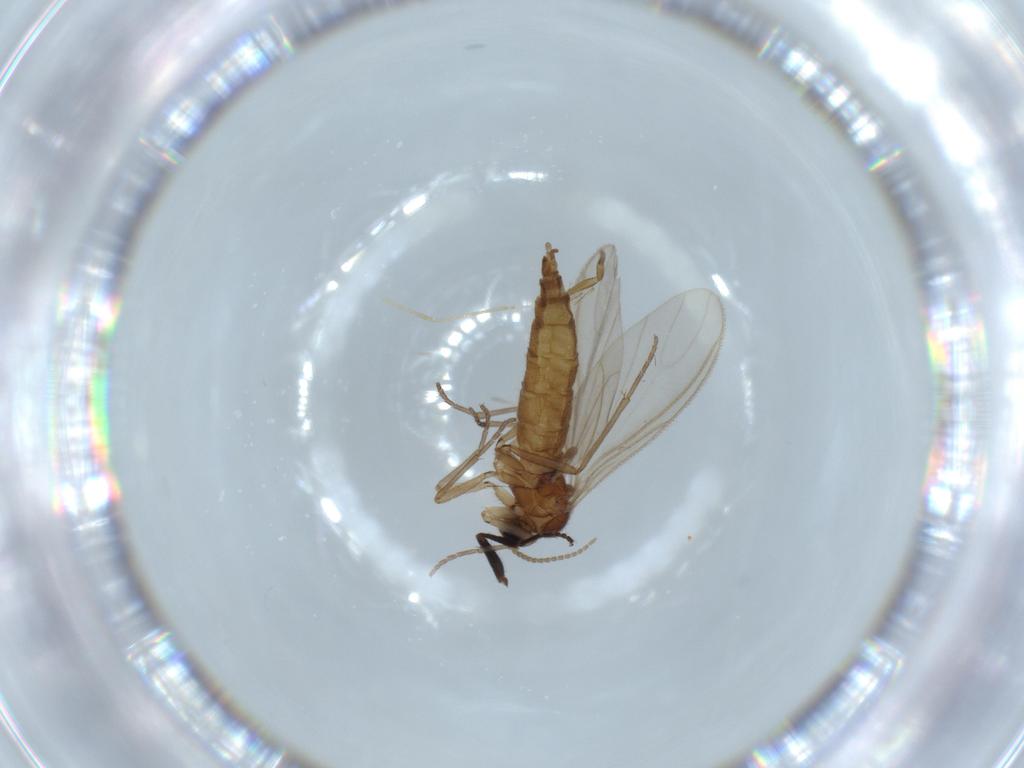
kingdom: Animalia
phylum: Arthropoda
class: Insecta
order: Diptera
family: Sciaridae
